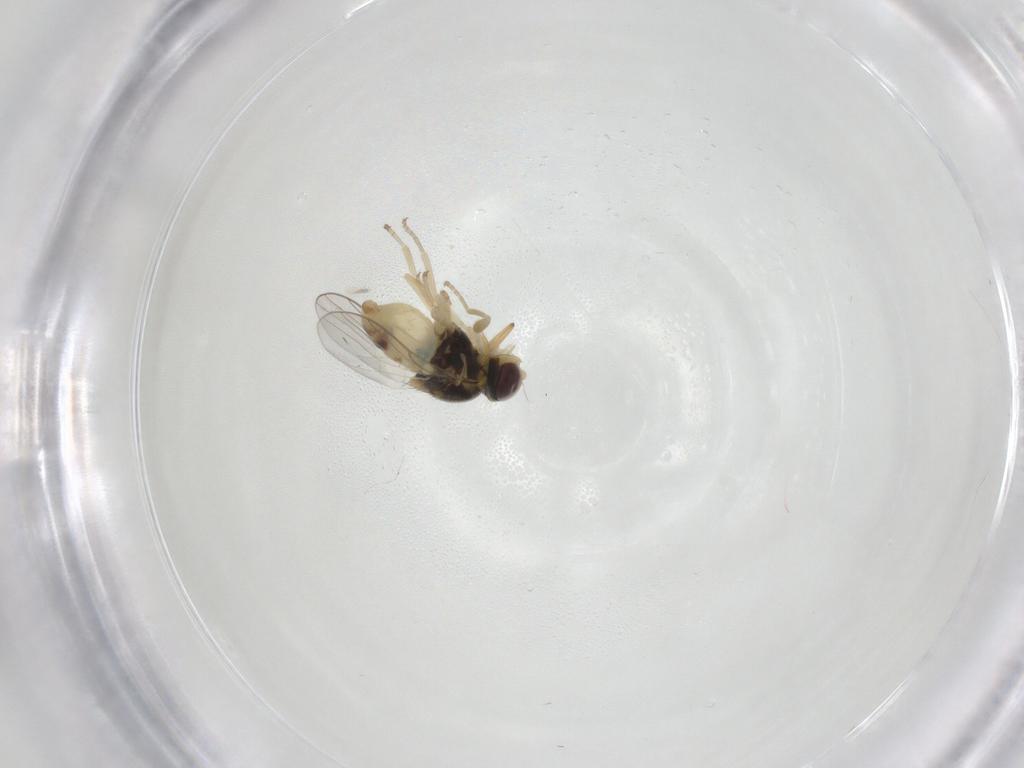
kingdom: Animalia
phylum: Arthropoda
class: Insecta
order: Diptera
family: Chloropidae
